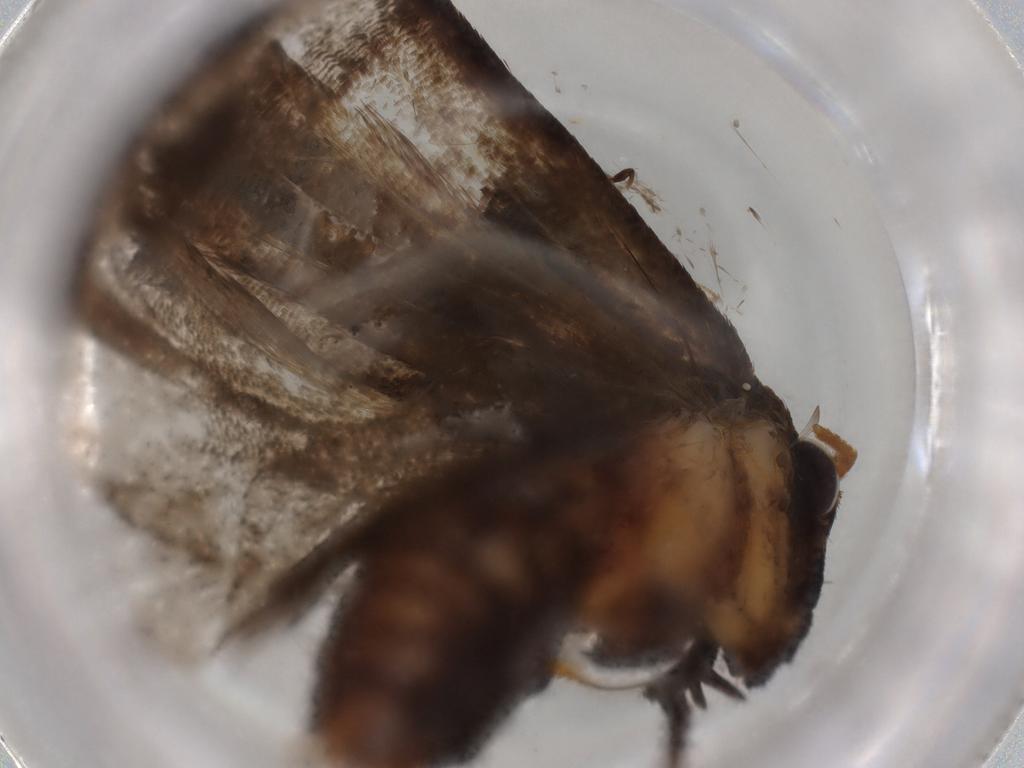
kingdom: Animalia
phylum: Arthropoda
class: Insecta
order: Lepidoptera
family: Lecithoceridae
